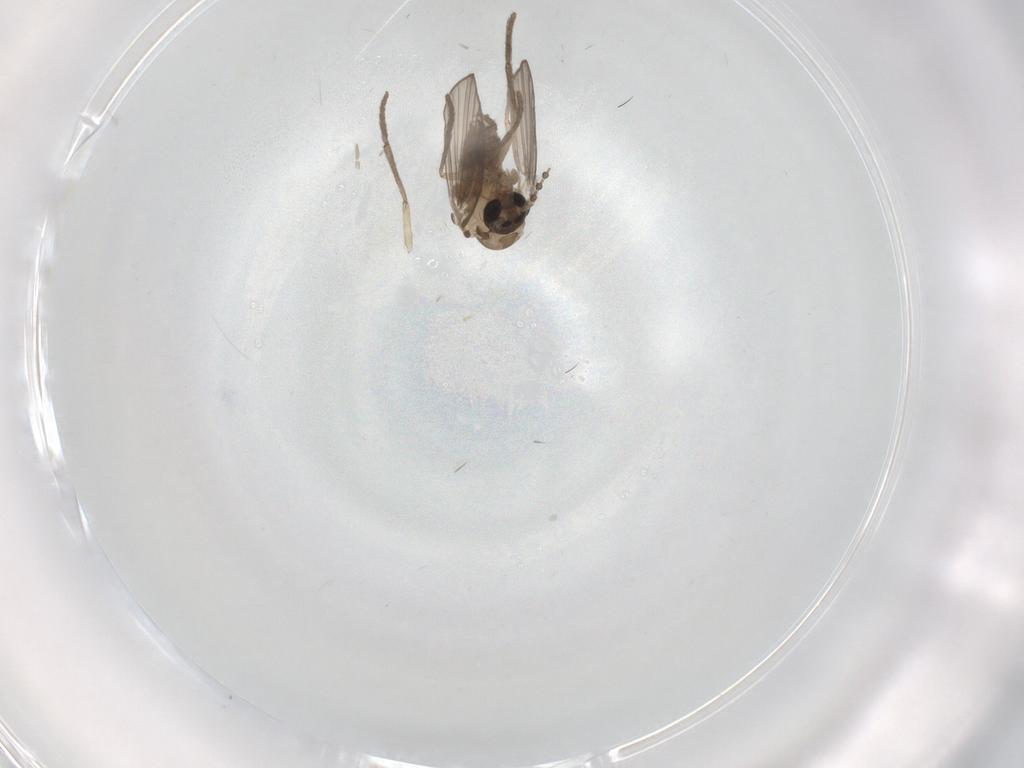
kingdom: Animalia
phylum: Arthropoda
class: Insecta
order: Diptera
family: Psychodidae
